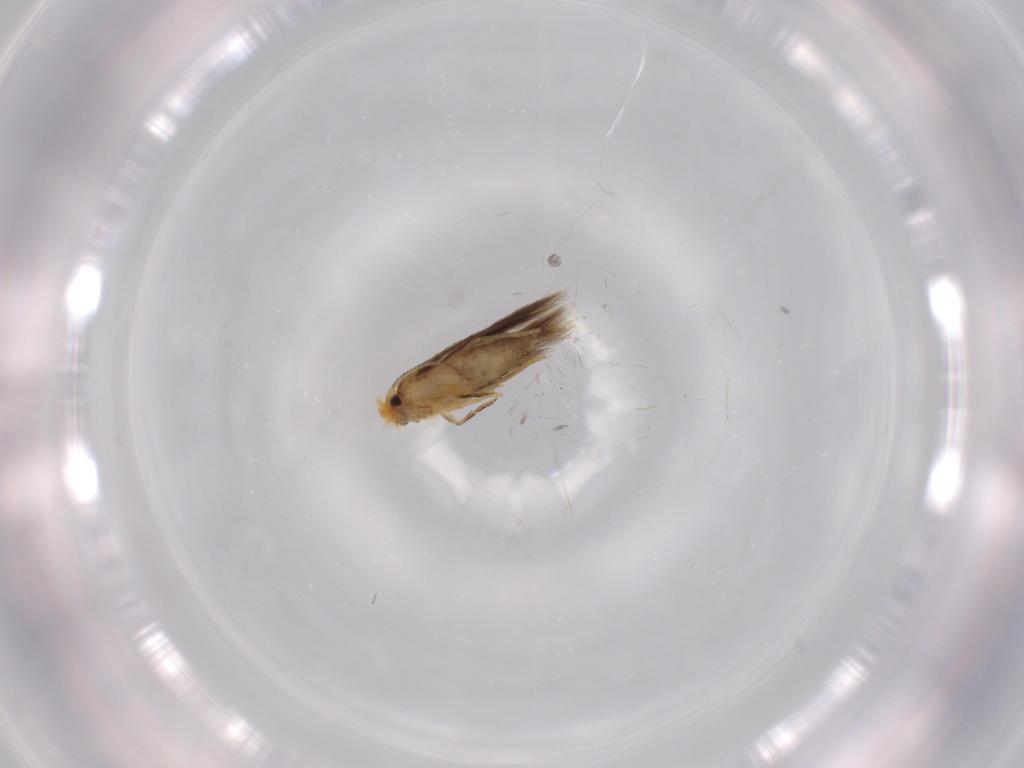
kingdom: Animalia
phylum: Arthropoda
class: Insecta
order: Lepidoptera
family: Nepticulidae
